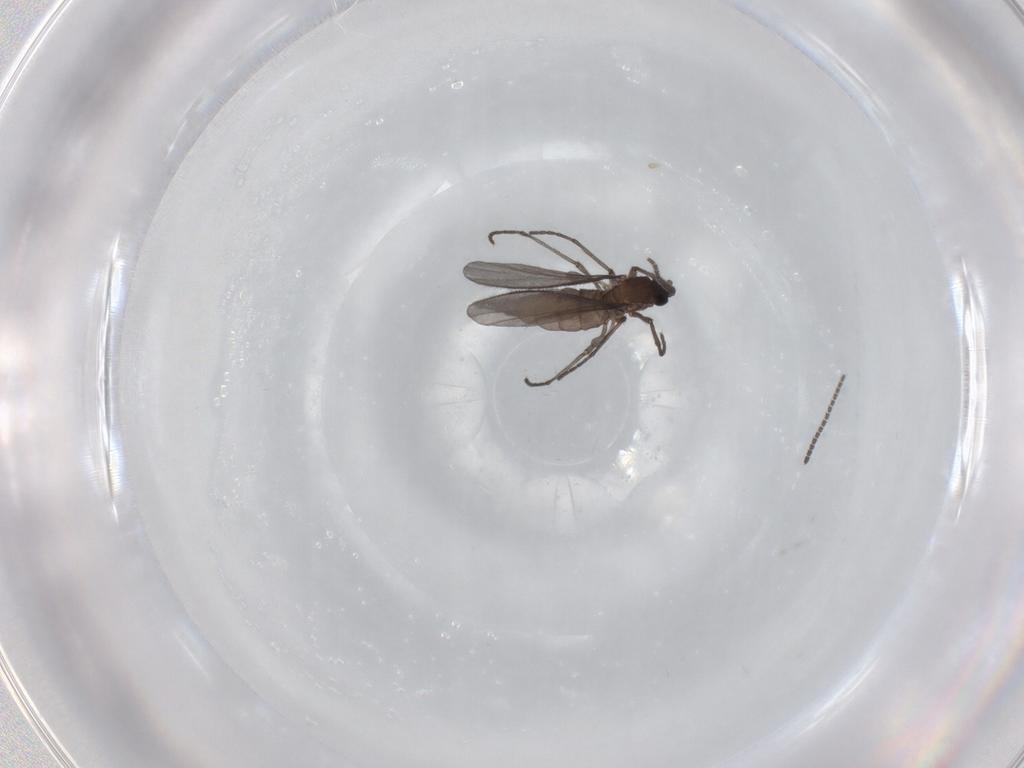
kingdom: Animalia
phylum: Arthropoda
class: Insecta
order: Diptera
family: Sciaridae
